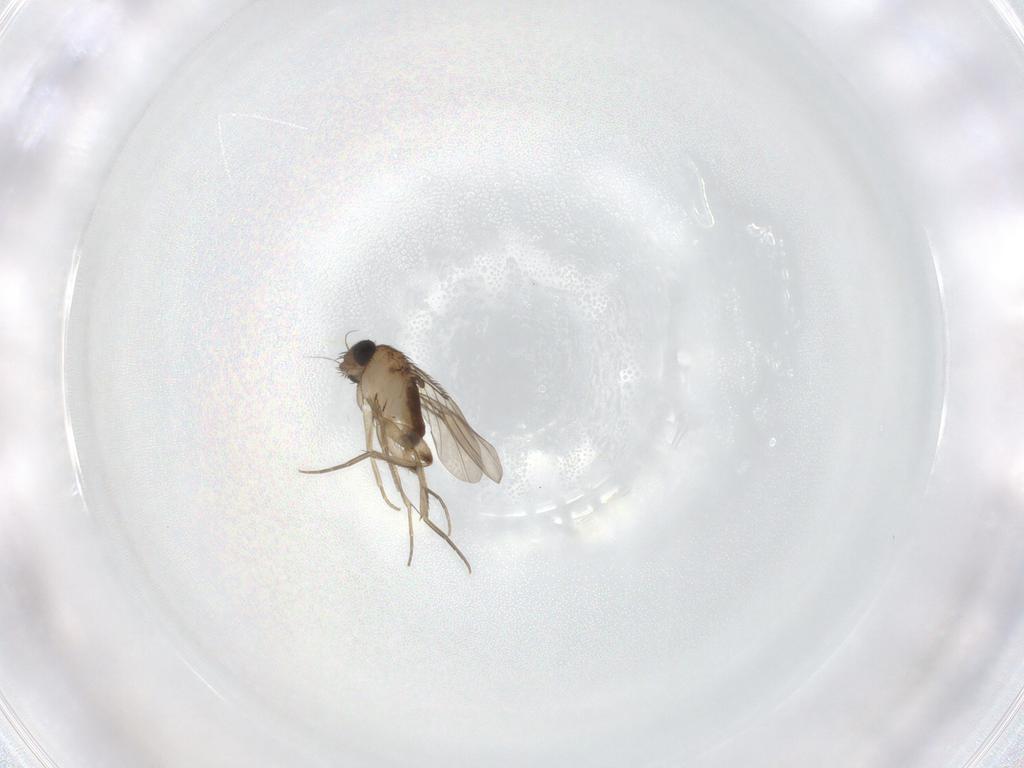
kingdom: Animalia
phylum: Arthropoda
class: Insecta
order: Diptera
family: Phoridae
